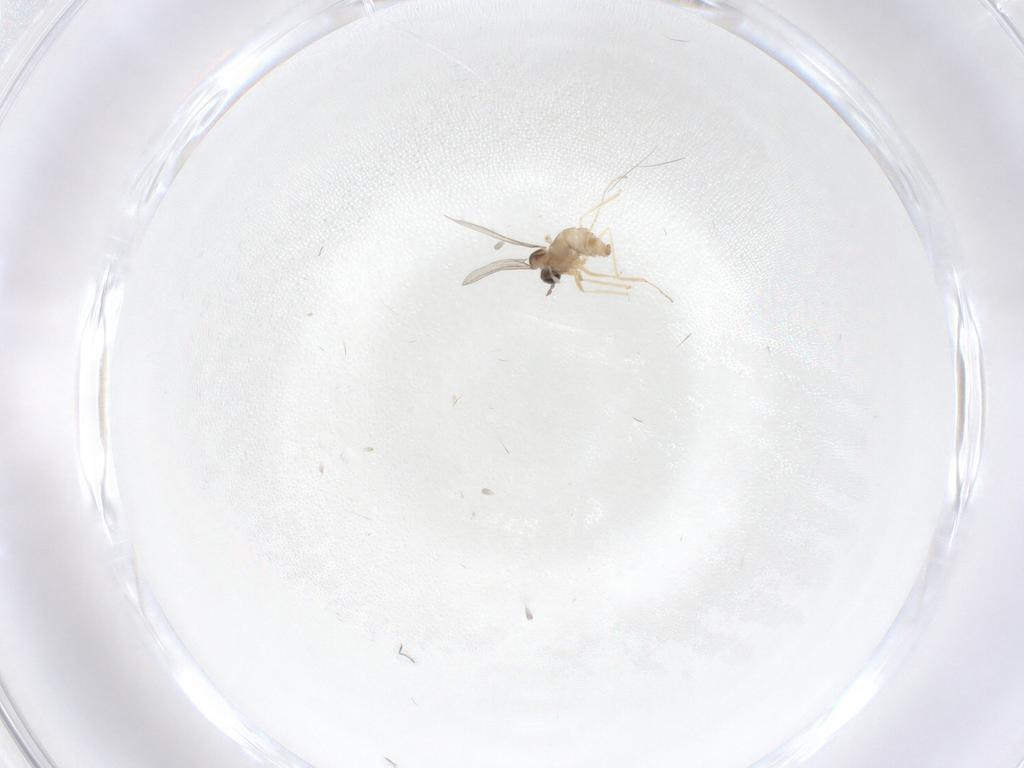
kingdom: Animalia
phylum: Arthropoda
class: Insecta
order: Diptera
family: Cecidomyiidae
